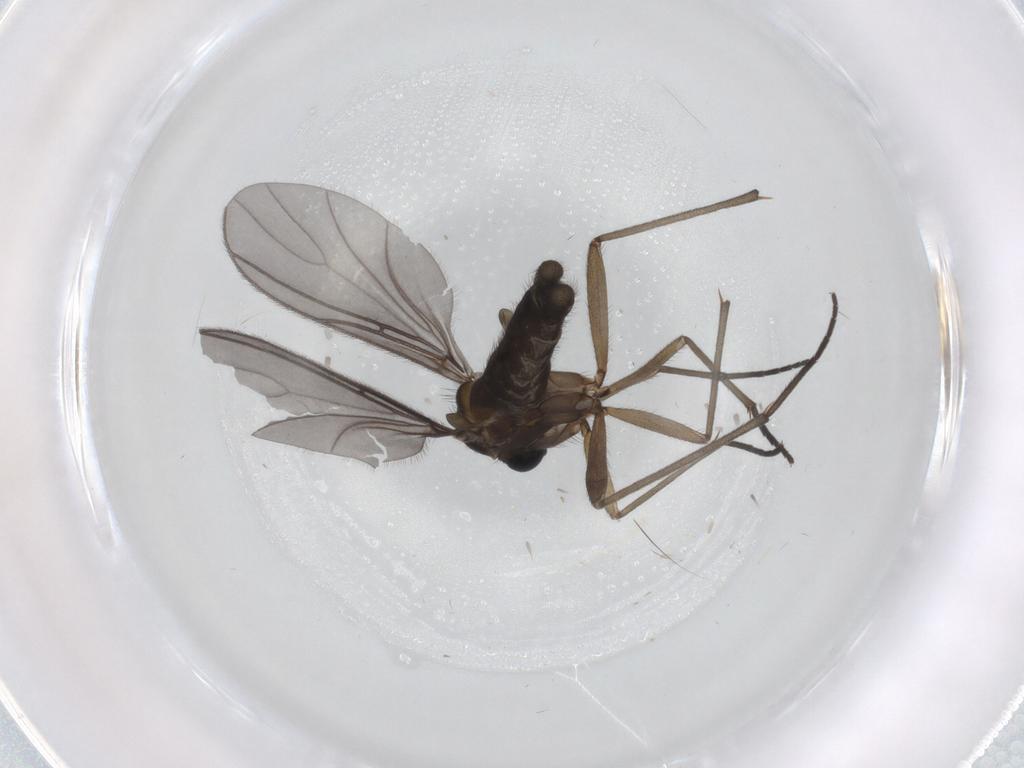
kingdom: Animalia
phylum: Arthropoda
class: Insecta
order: Diptera
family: Sciaridae
